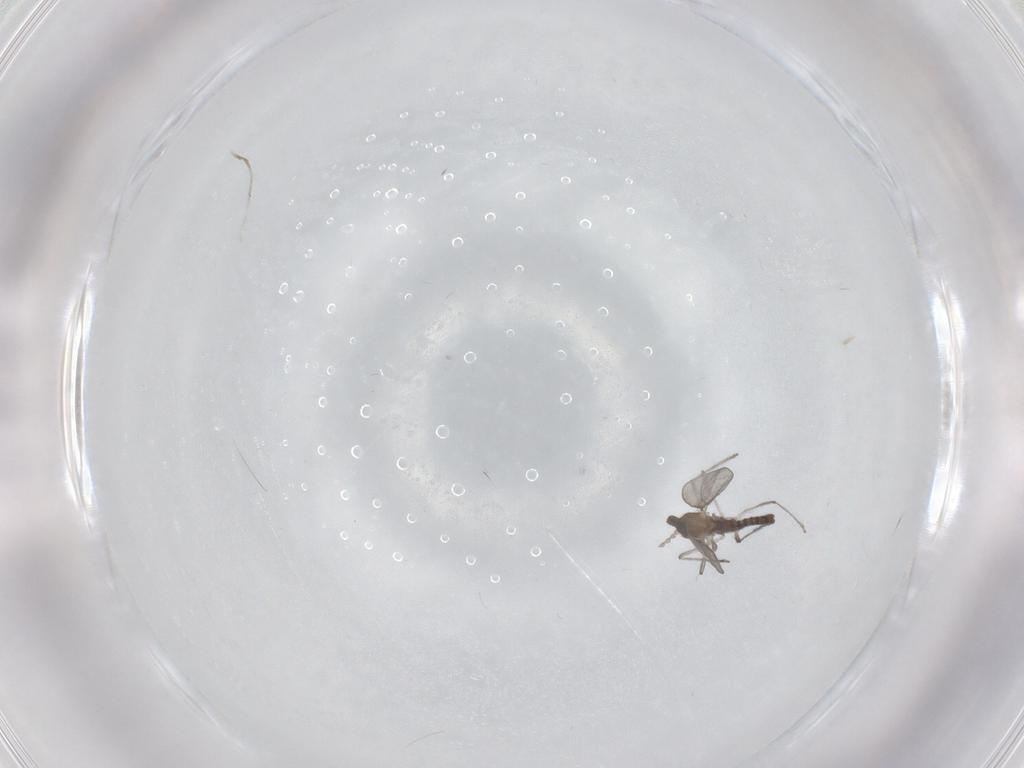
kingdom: Animalia
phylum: Arthropoda
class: Insecta
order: Diptera
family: Cecidomyiidae
